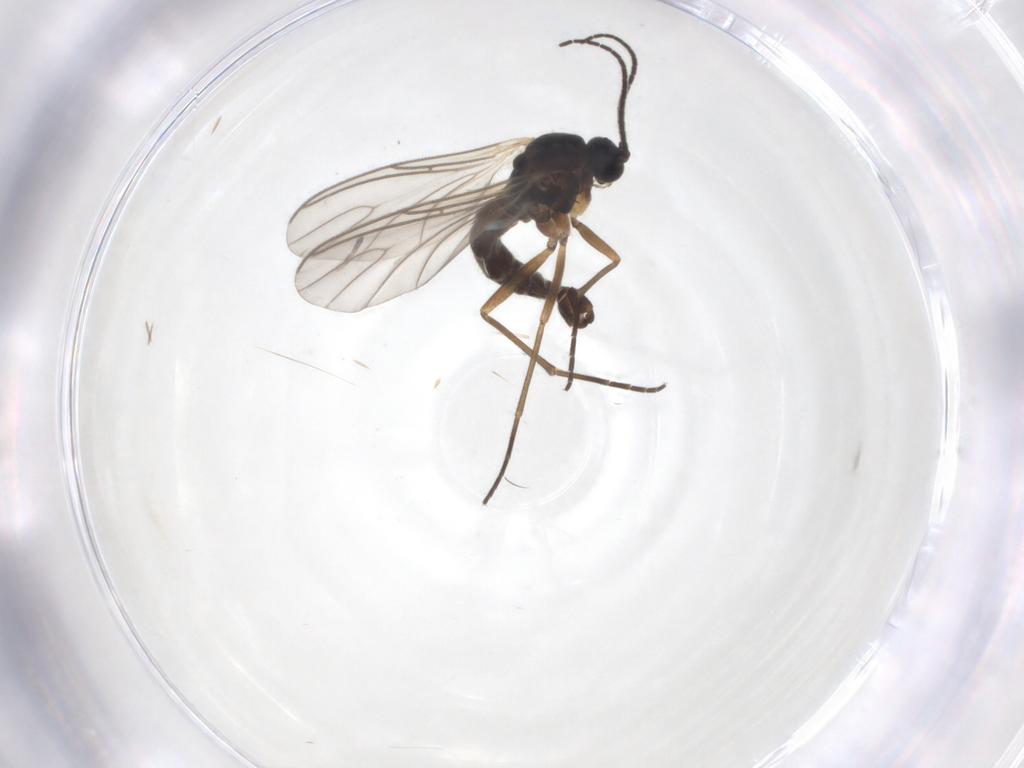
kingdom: Animalia
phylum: Arthropoda
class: Insecta
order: Diptera
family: Sciaridae
